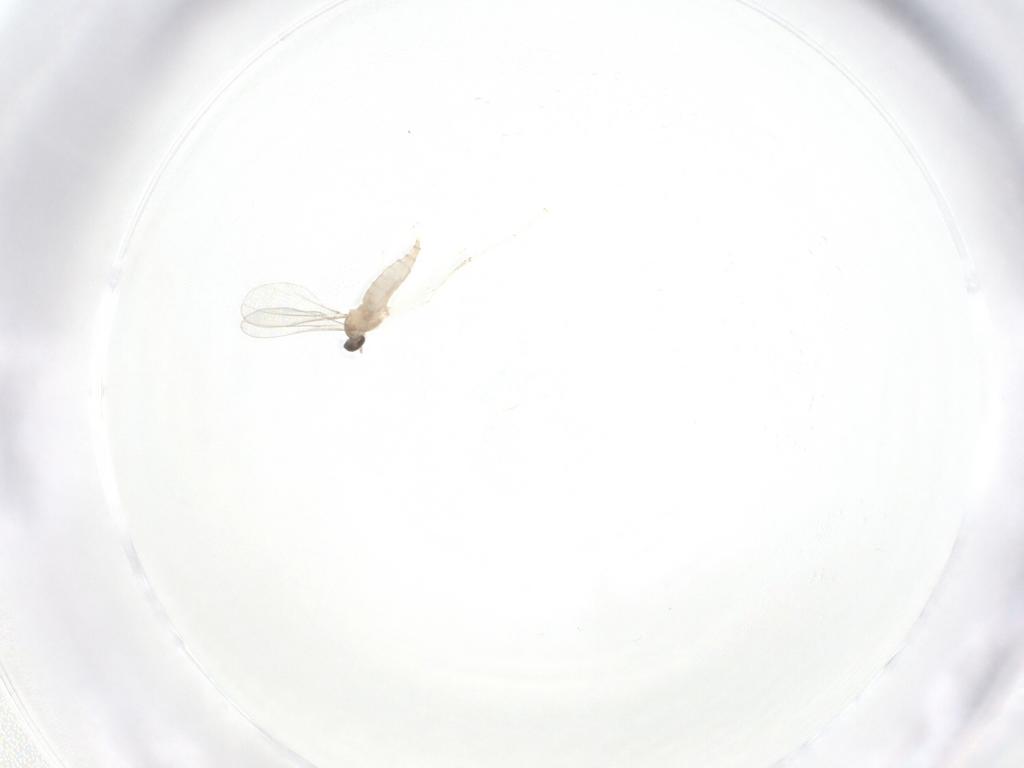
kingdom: Animalia
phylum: Arthropoda
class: Insecta
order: Diptera
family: Cecidomyiidae
